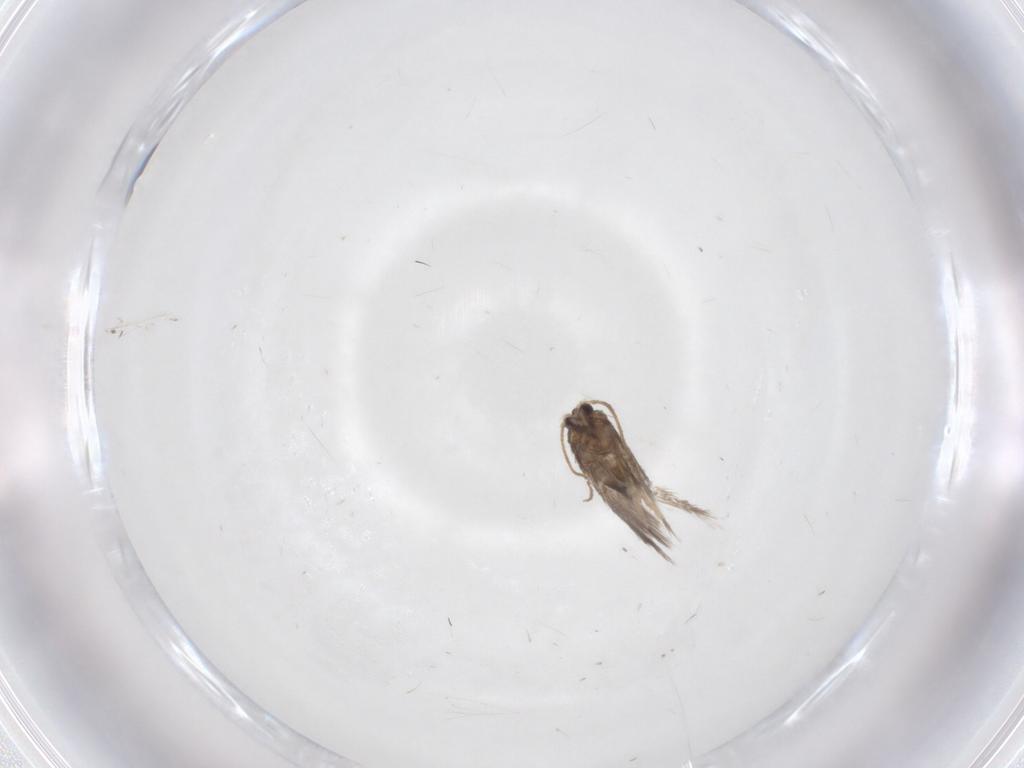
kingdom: Animalia
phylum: Arthropoda
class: Insecta
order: Lepidoptera
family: Nepticulidae
